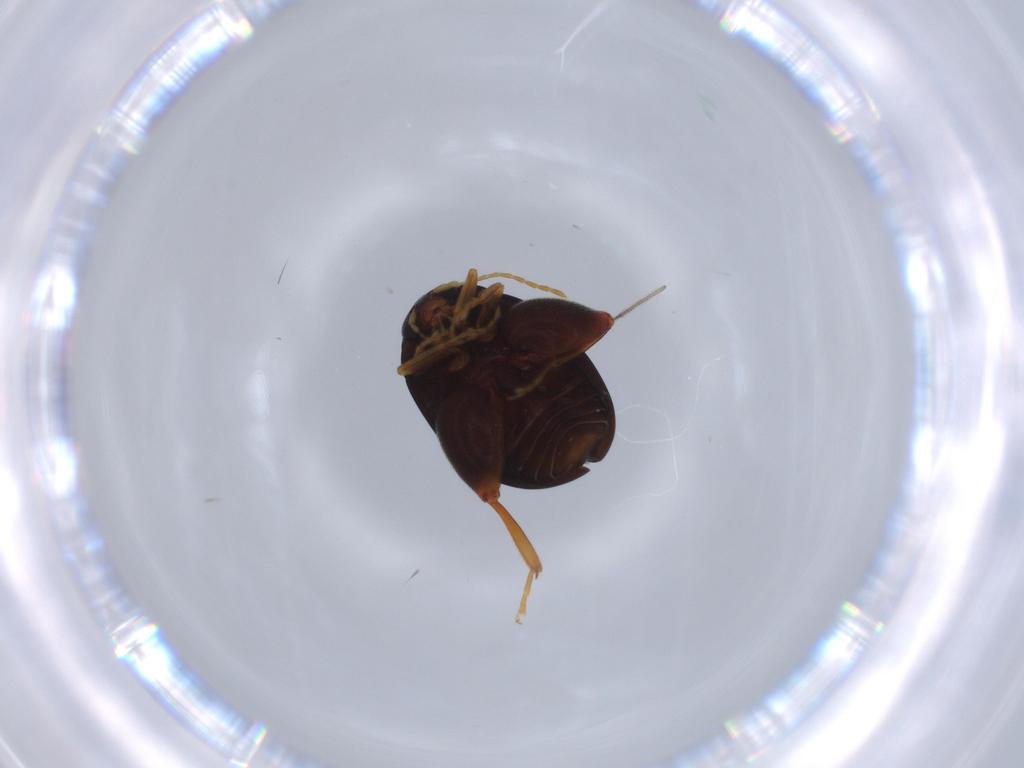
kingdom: Animalia
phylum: Arthropoda
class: Insecta
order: Coleoptera
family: Chrysomelidae
